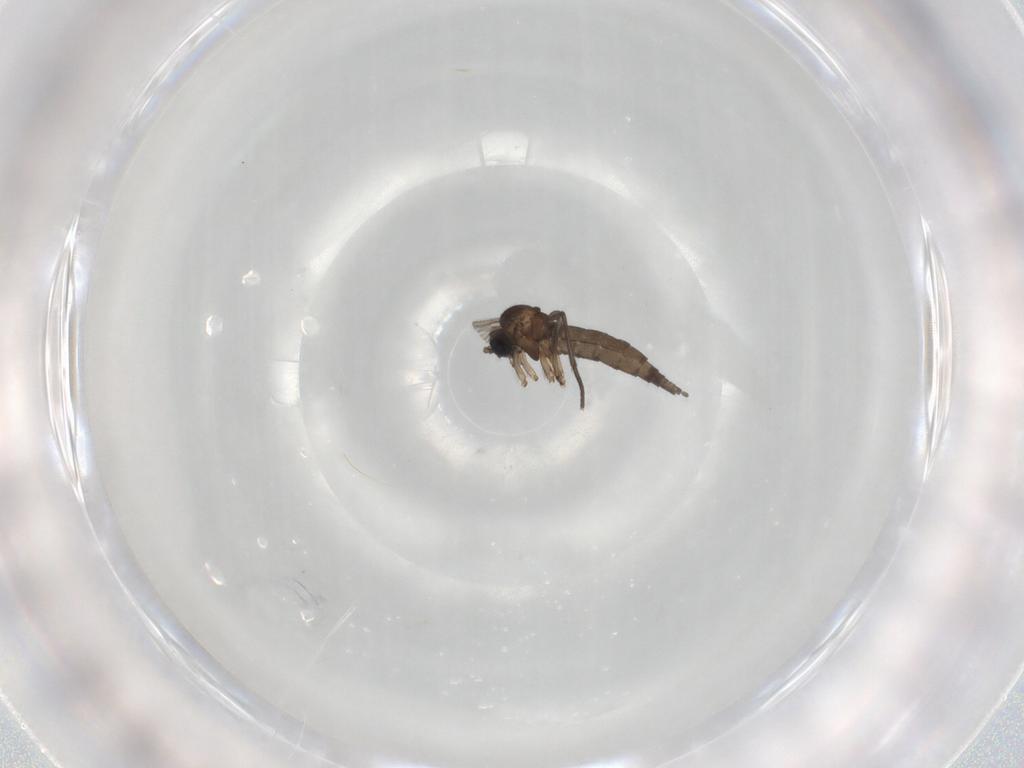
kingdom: Animalia
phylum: Arthropoda
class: Insecta
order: Diptera
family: Sciaridae
